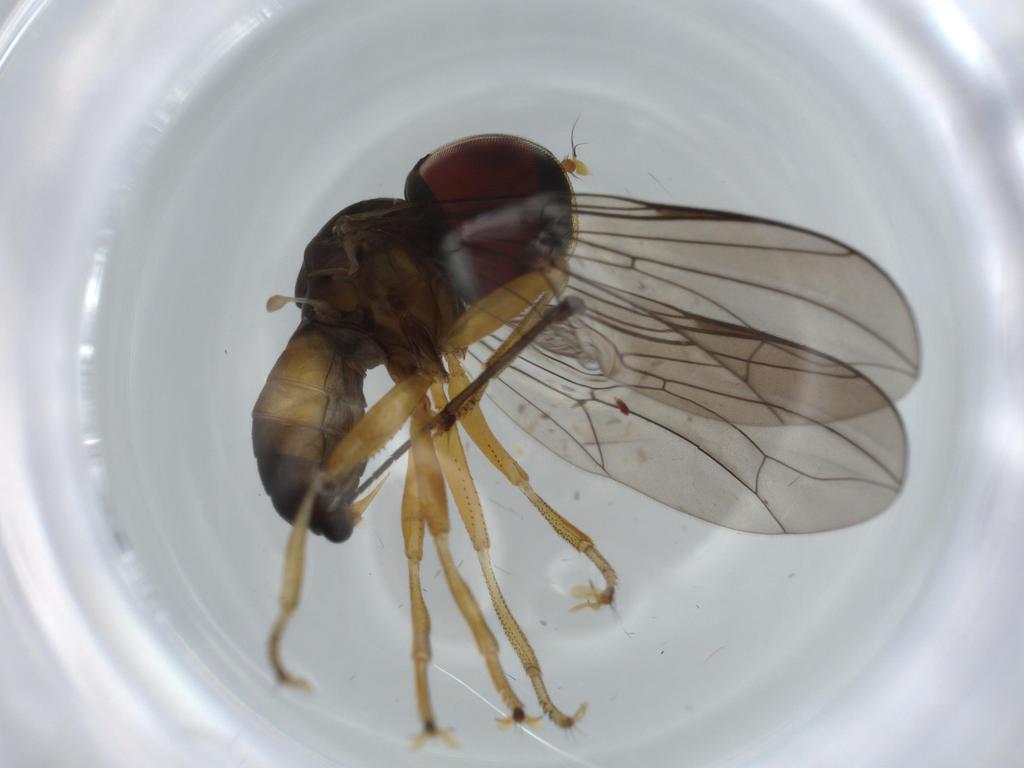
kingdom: Animalia
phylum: Arthropoda
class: Insecta
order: Diptera
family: Pipunculidae
